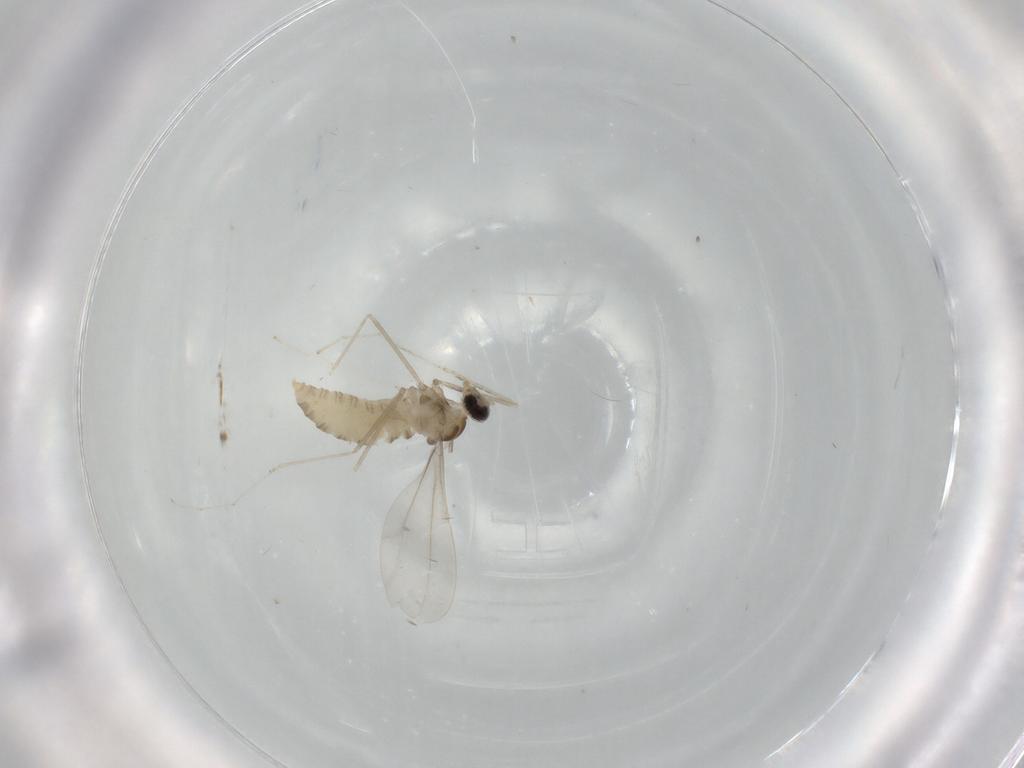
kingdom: Animalia
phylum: Arthropoda
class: Insecta
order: Diptera
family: Cecidomyiidae
